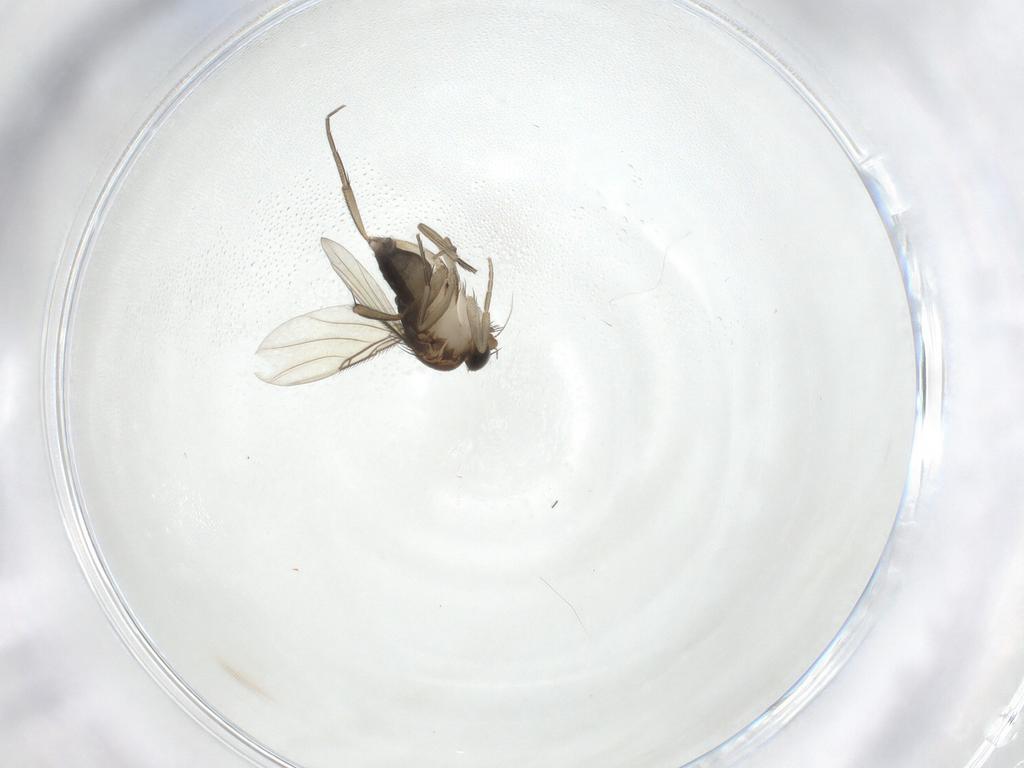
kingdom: Animalia
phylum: Arthropoda
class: Insecta
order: Diptera
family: Phoridae
